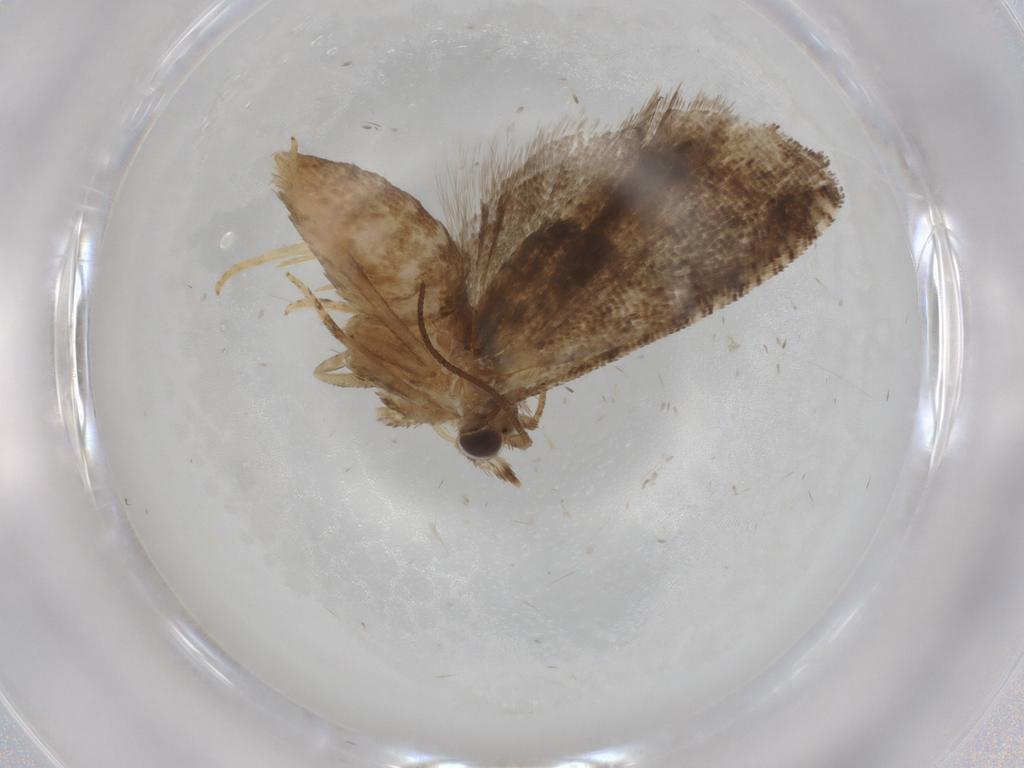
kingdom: Animalia
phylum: Arthropoda
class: Insecta
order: Lepidoptera
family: Tortricidae
